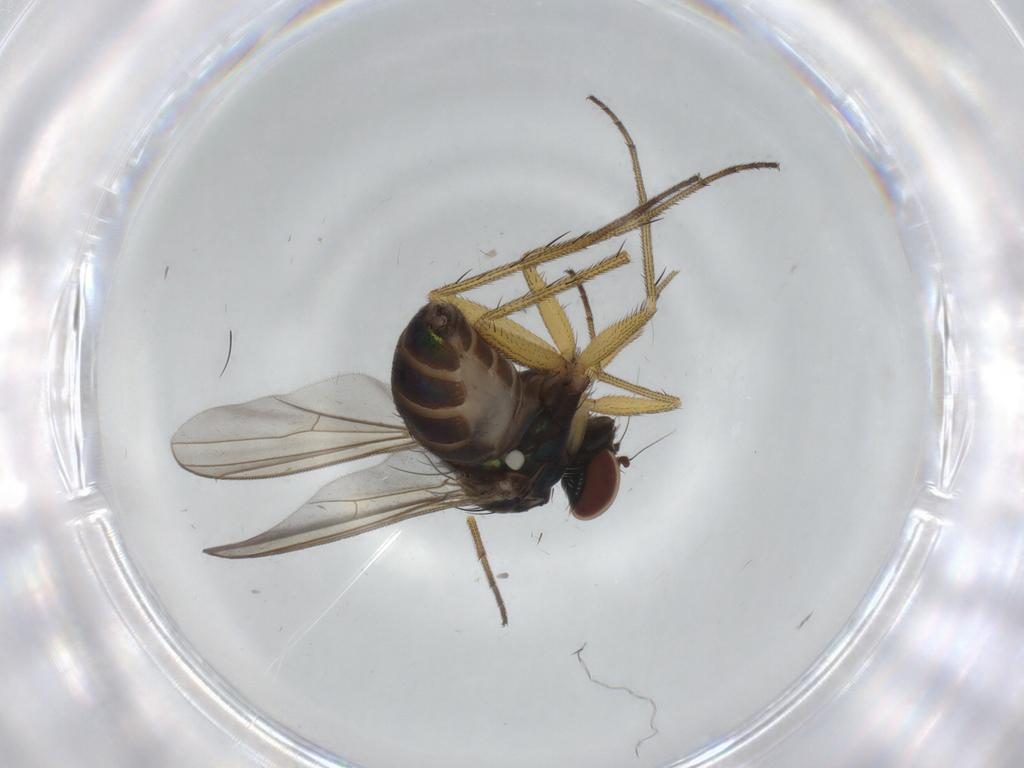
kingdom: Animalia
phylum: Arthropoda
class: Insecta
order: Diptera
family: Dolichopodidae
